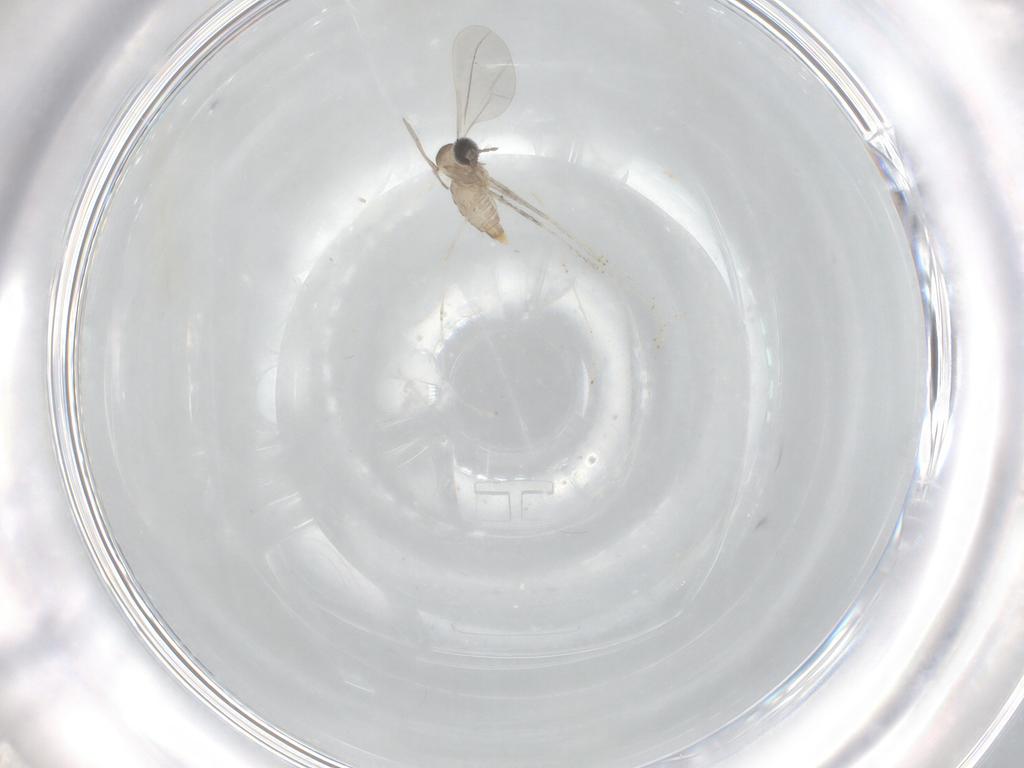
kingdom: Animalia
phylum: Arthropoda
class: Insecta
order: Diptera
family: Cecidomyiidae
